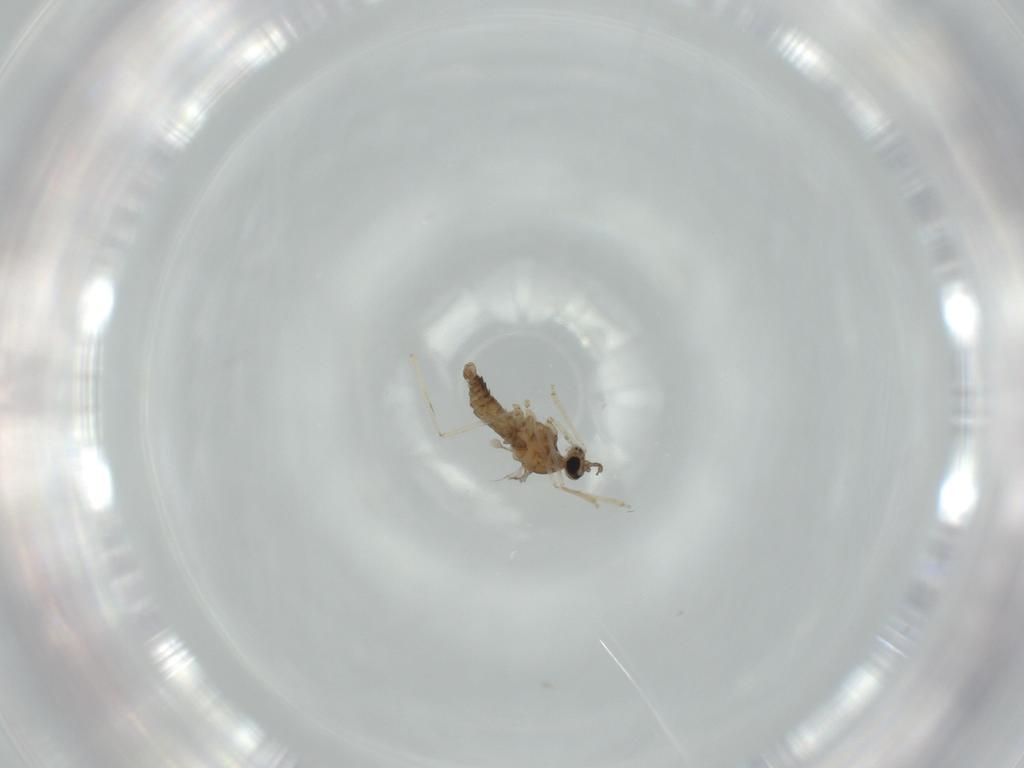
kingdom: Animalia
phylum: Arthropoda
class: Insecta
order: Diptera
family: Cecidomyiidae
